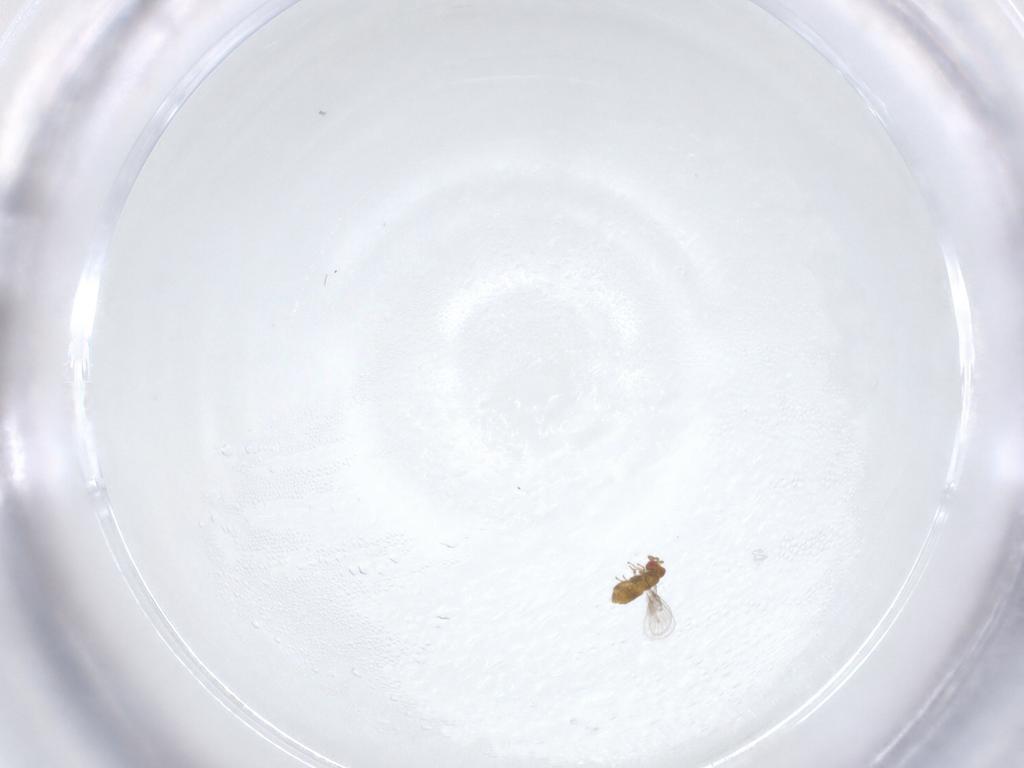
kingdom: Animalia
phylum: Arthropoda
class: Insecta
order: Hymenoptera
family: Trichogrammatidae
